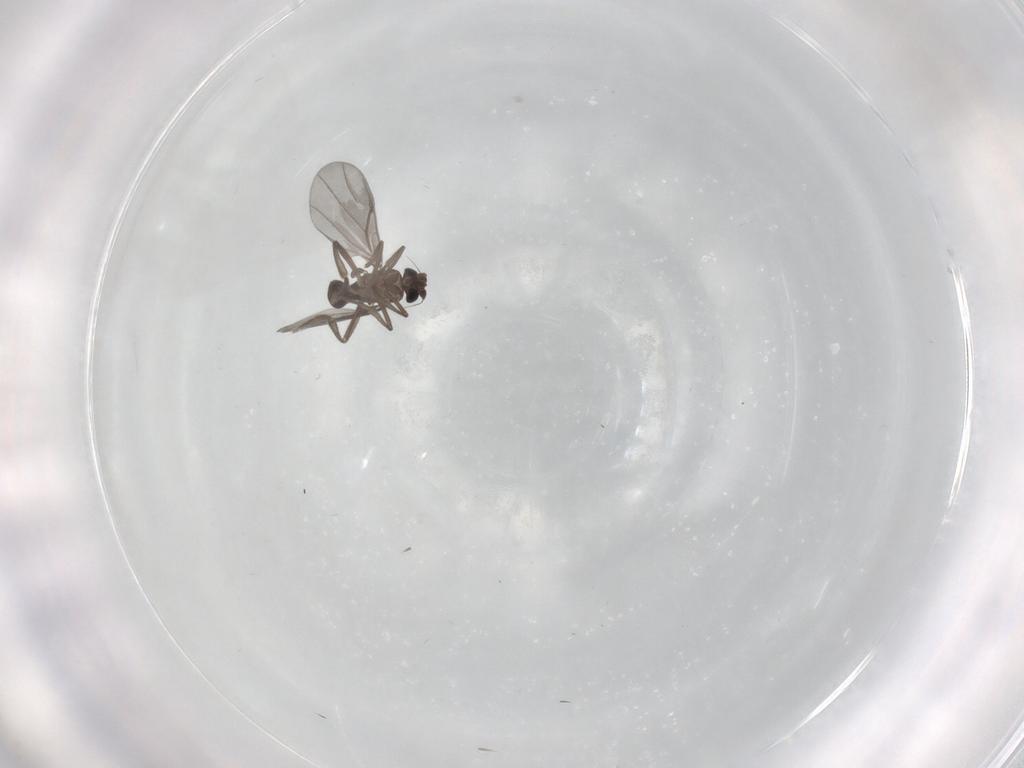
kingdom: Animalia
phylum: Arthropoda
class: Insecta
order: Diptera
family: Phoridae
